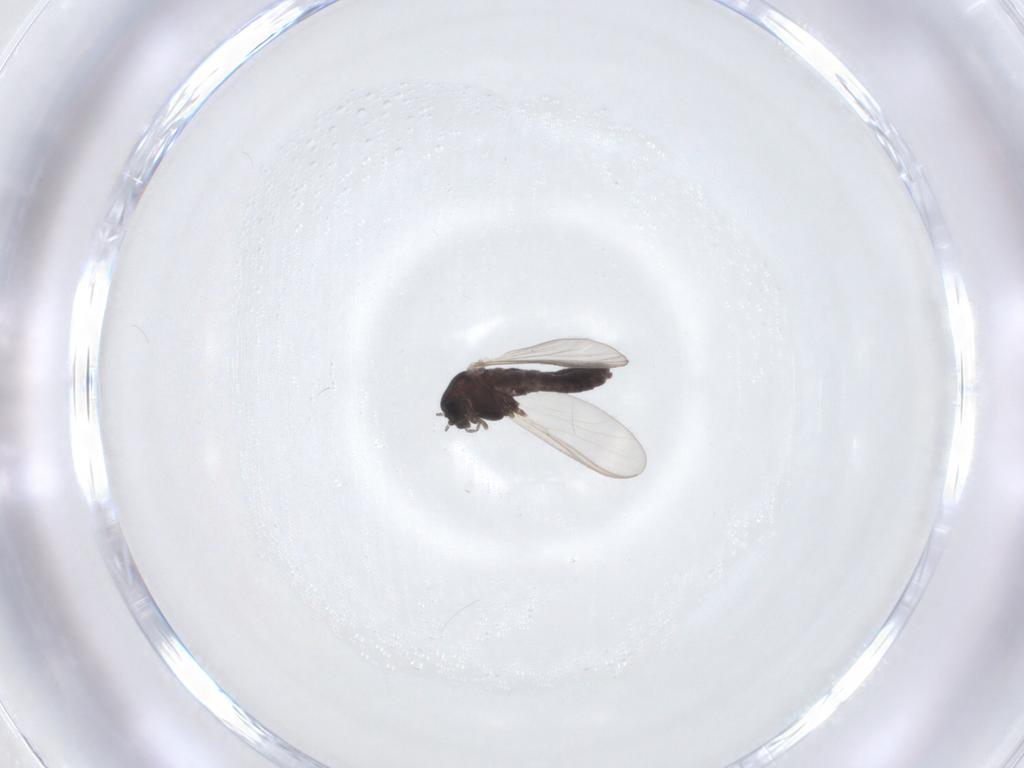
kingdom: Animalia
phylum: Arthropoda
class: Insecta
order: Diptera
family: Chironomidae
